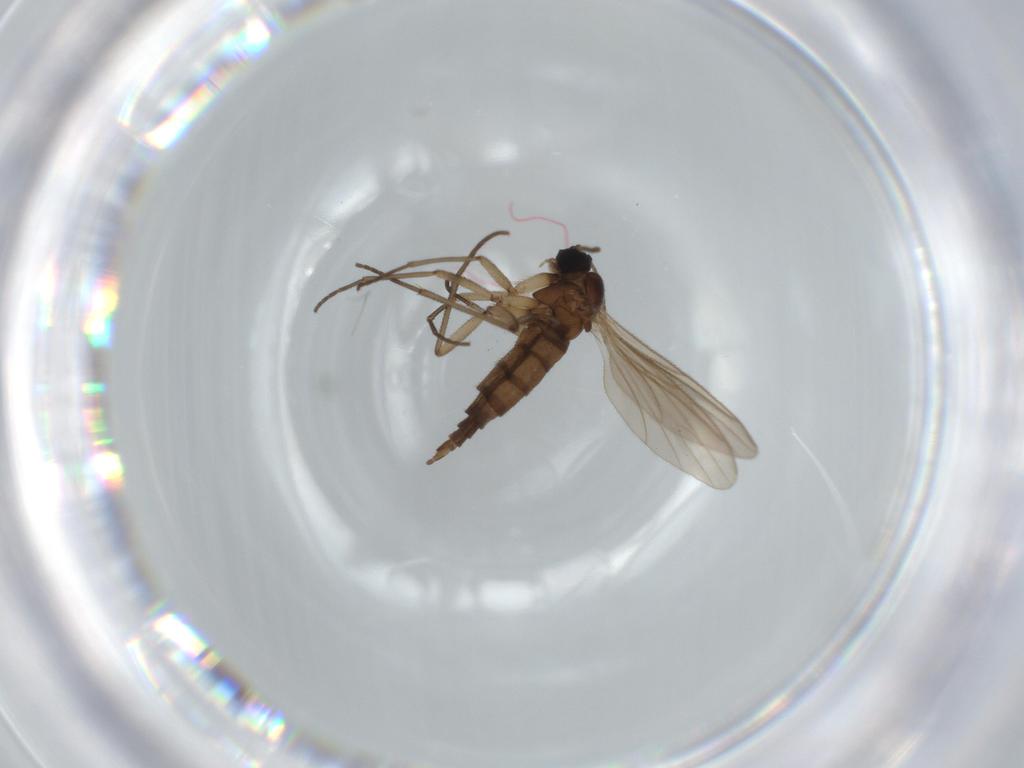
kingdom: Animalia
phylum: Arthropoda
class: Insecta
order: Diptera
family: Sciaridae
